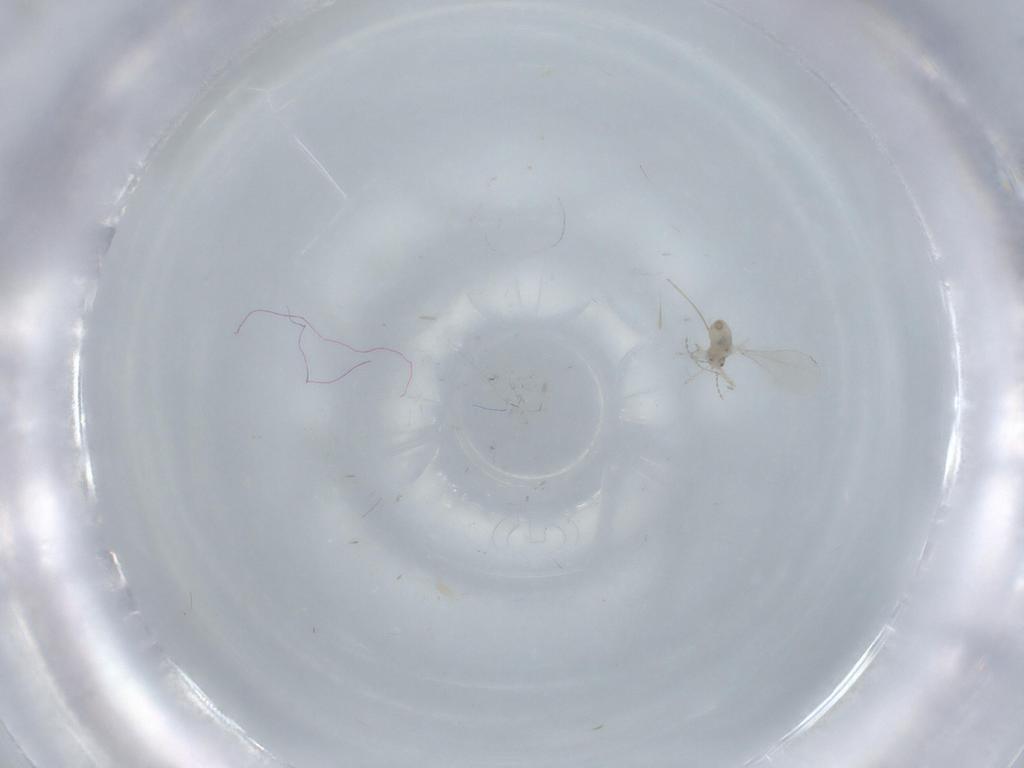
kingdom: Animalia
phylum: Arthropoda
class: Insecta
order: Diptera
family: Cecidomyiidae
